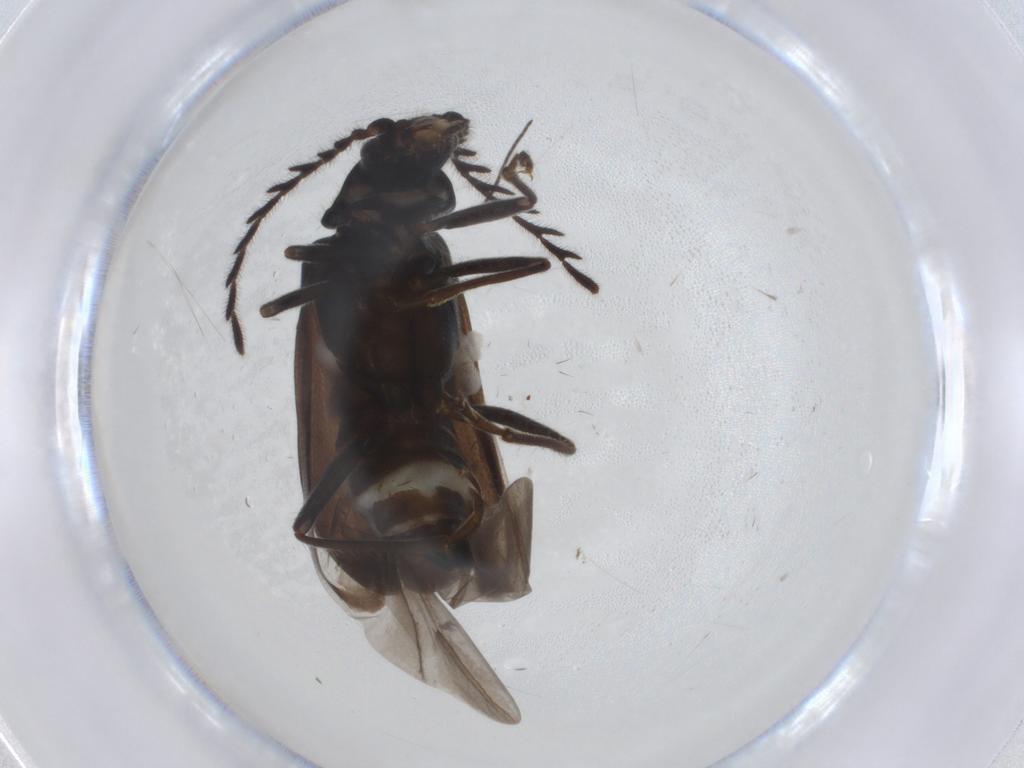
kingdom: Animalia
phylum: Arthropoda
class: Insecta
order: Coleoptera
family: Melyridae
